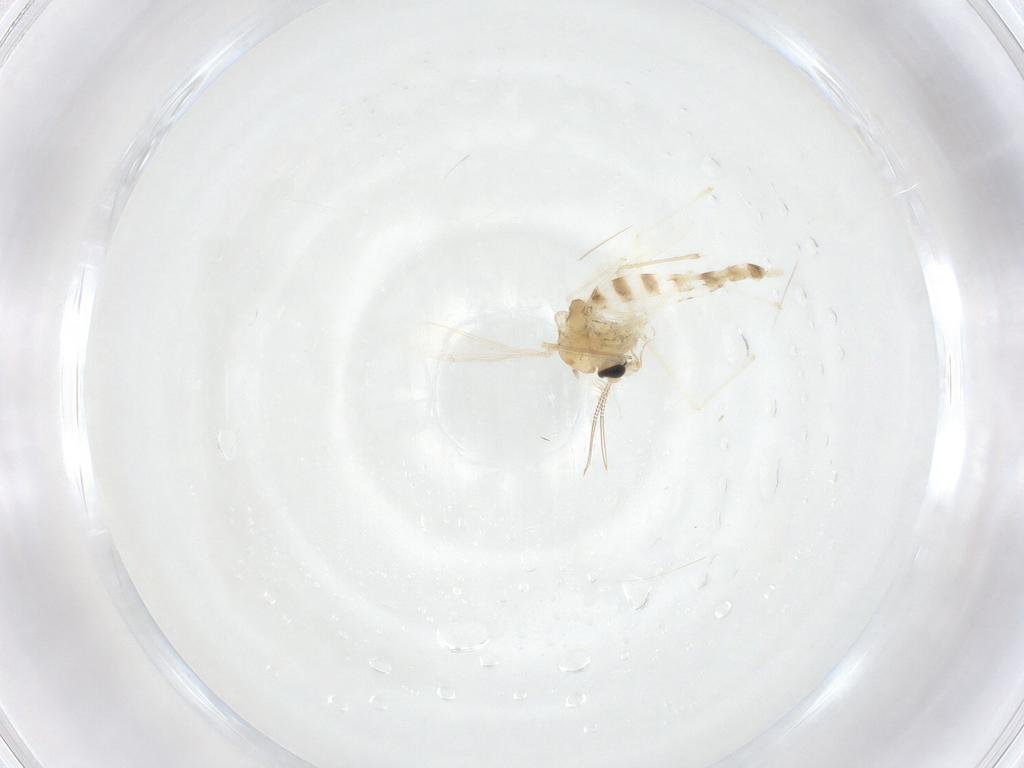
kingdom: Animalia
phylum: Arthropoda
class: Insecta
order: Diptera
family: Chironomidae
